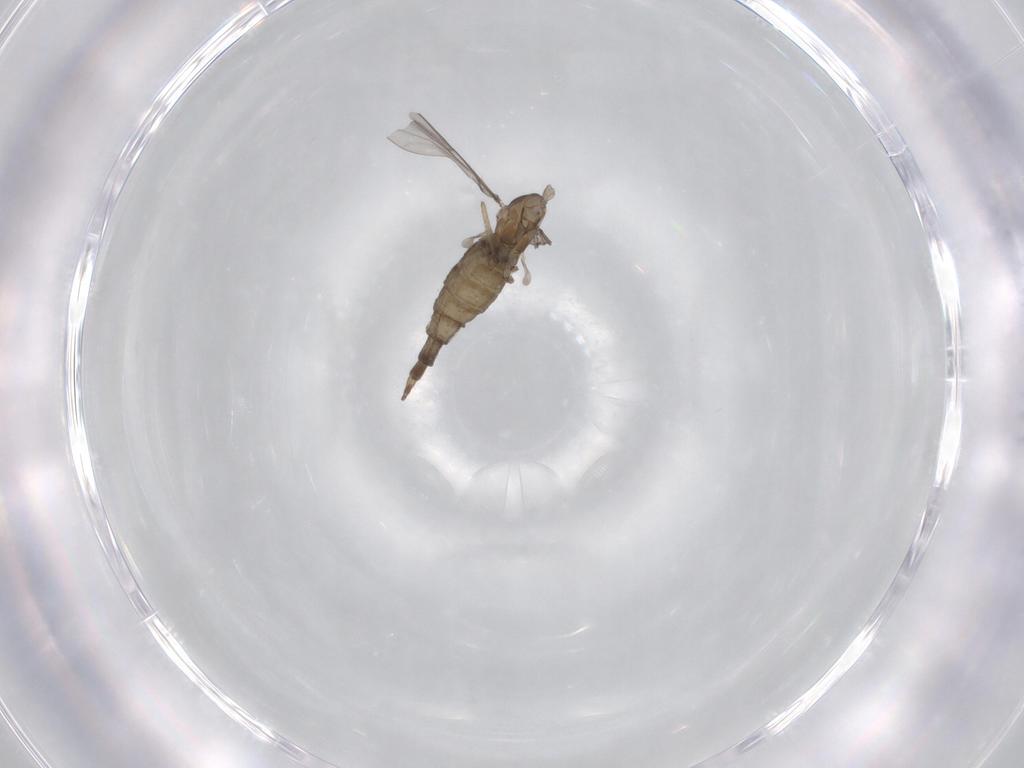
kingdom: Animalia
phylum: Arthropoda
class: Insecta
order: Diptera
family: Cecidomyiidae
